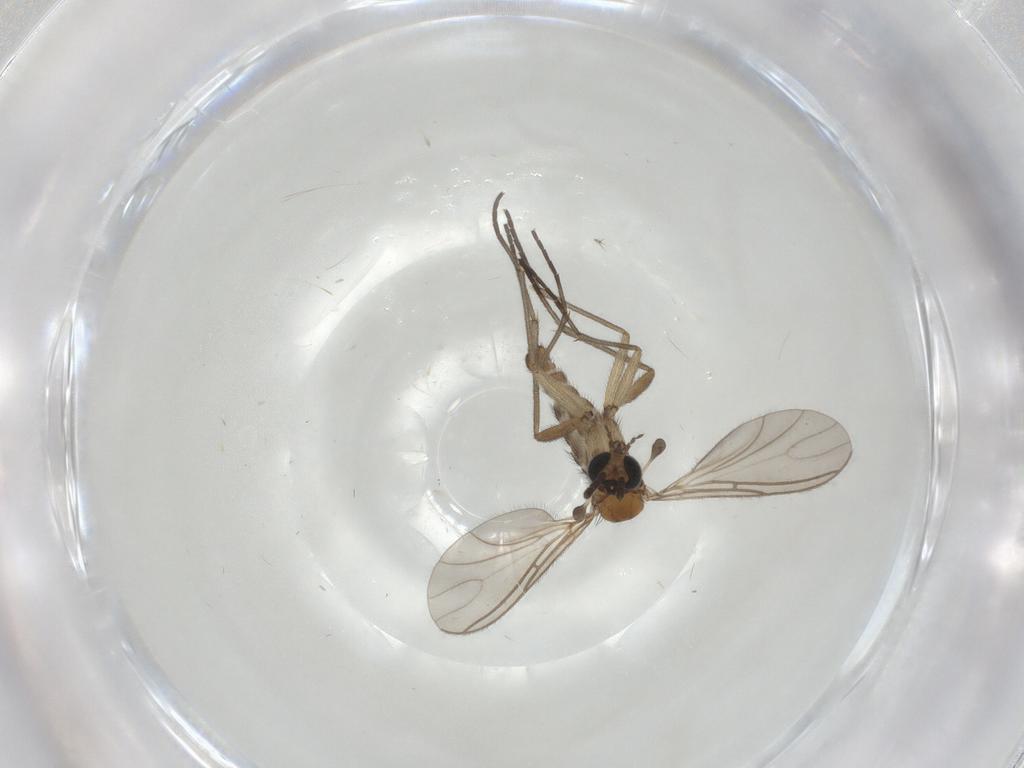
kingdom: Animalia
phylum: Arthropoda
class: Insecta
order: Diptera
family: Sciaridae
